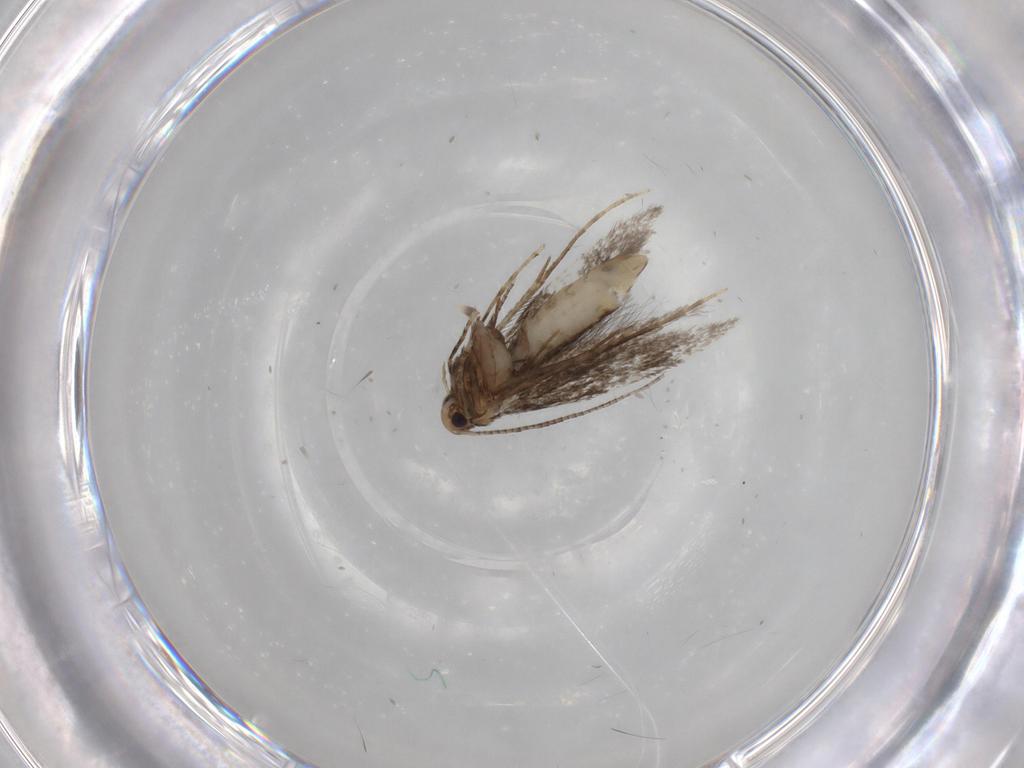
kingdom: Animalia
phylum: Arthropoda
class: Insecta
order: Lepidoptera
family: Gracillariidae
